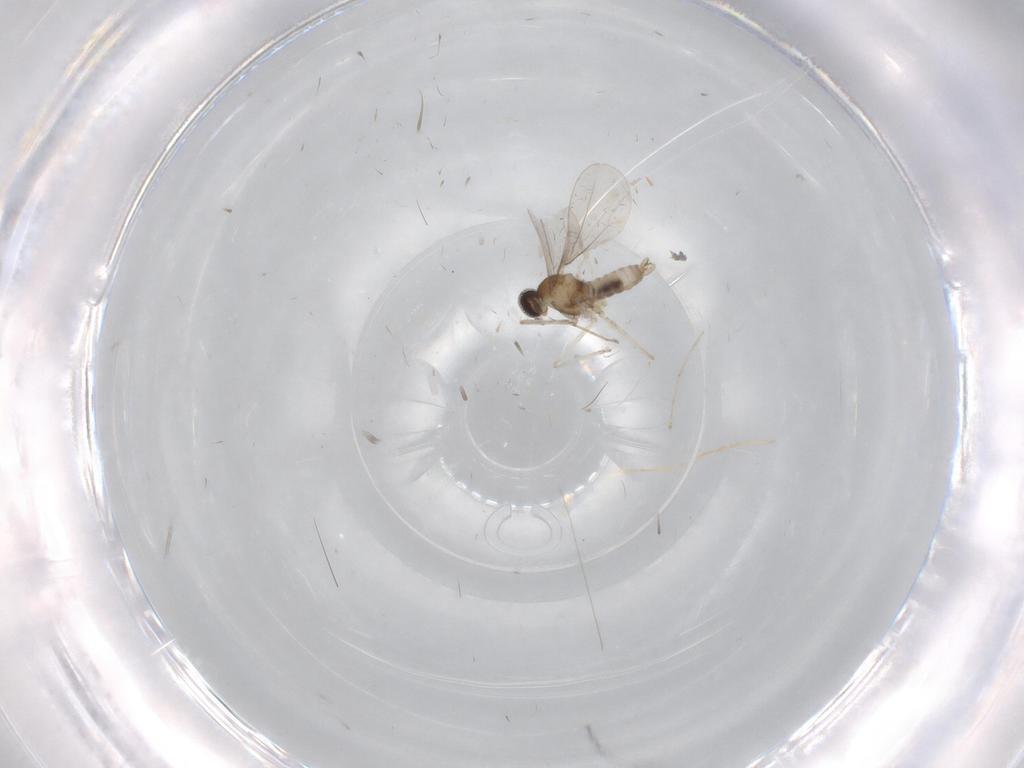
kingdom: Animalia
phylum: Arthropoda
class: Insecta
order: Diptera
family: Cecidomyiidae
